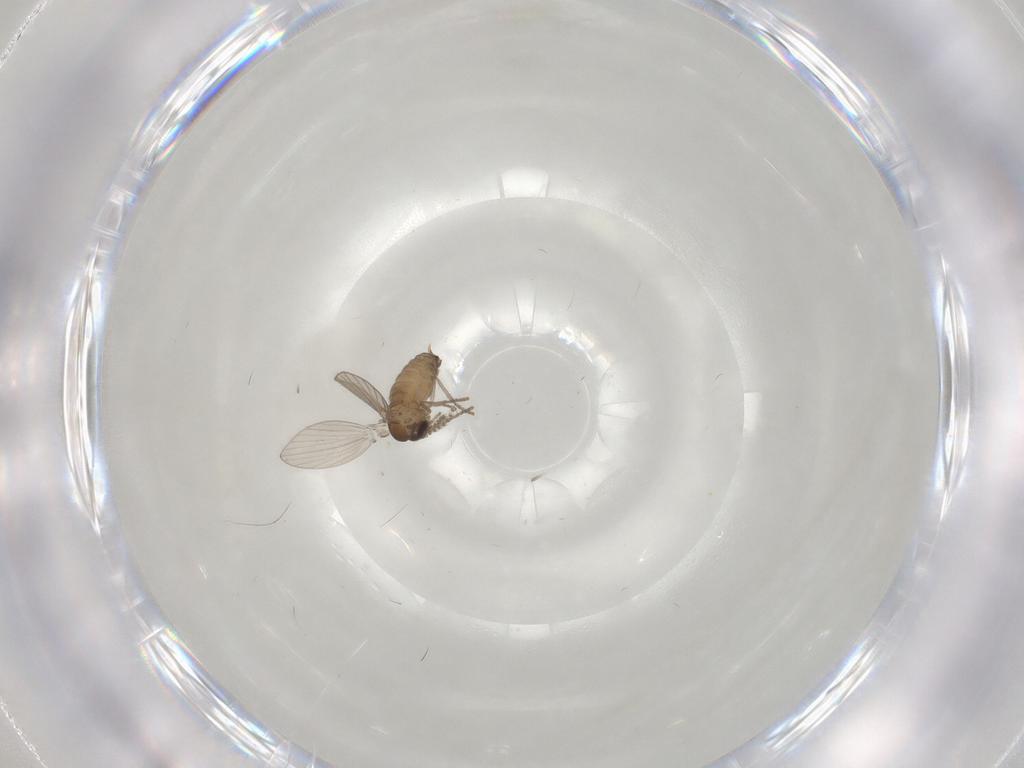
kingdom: Animalia
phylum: Arthropoda
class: Insecta
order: Diptera
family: Psychodidae
